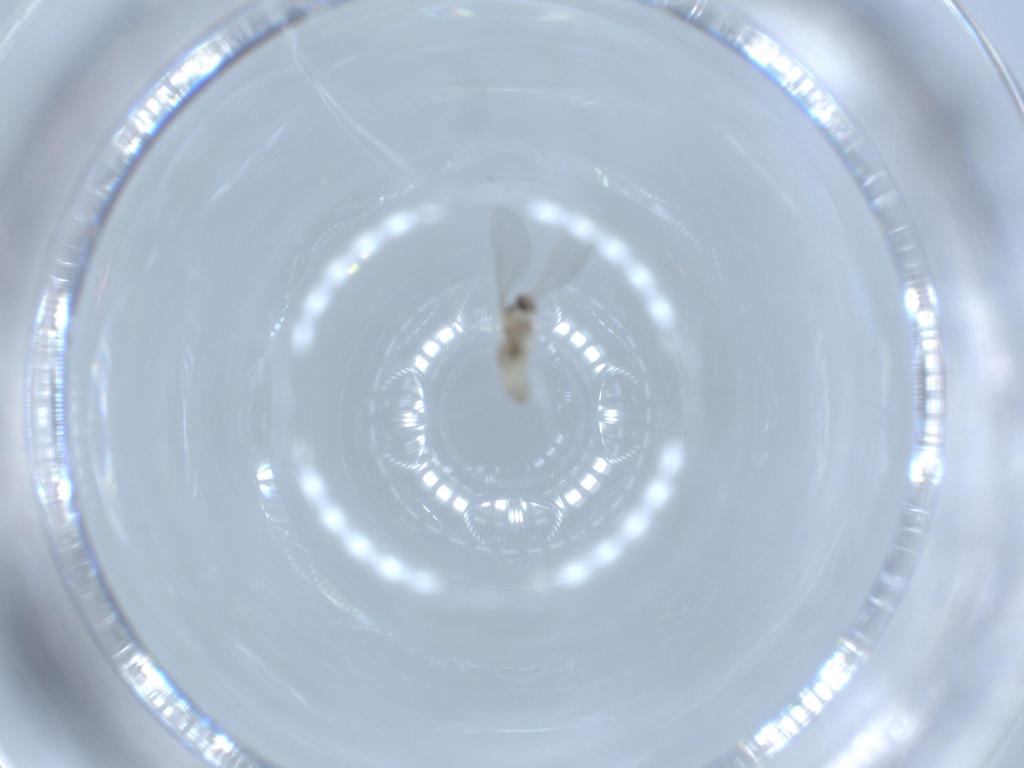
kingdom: Animalia
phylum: Arthropoda
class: Insecta
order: Diptera
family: Cecidomyiidae
